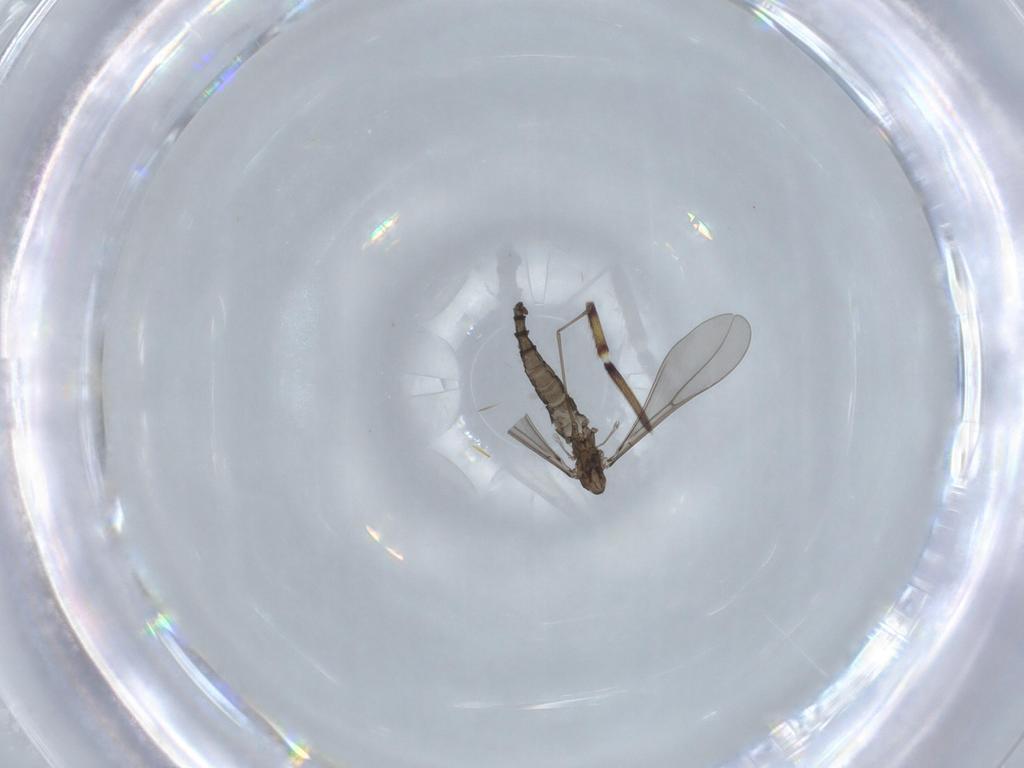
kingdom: Animalia
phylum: Arthropoda
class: Insecta
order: Diptera
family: Cecidomyiidae
